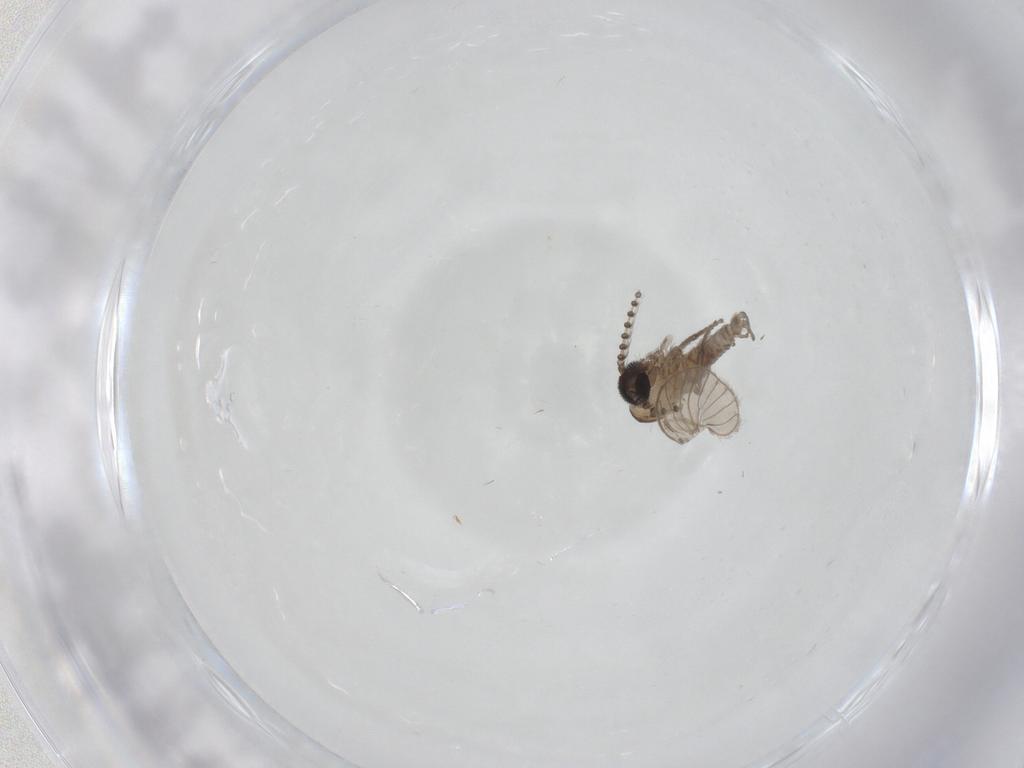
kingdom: Animalia
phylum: Arthropoda
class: Insecta
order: Diptera
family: Psychodidae
